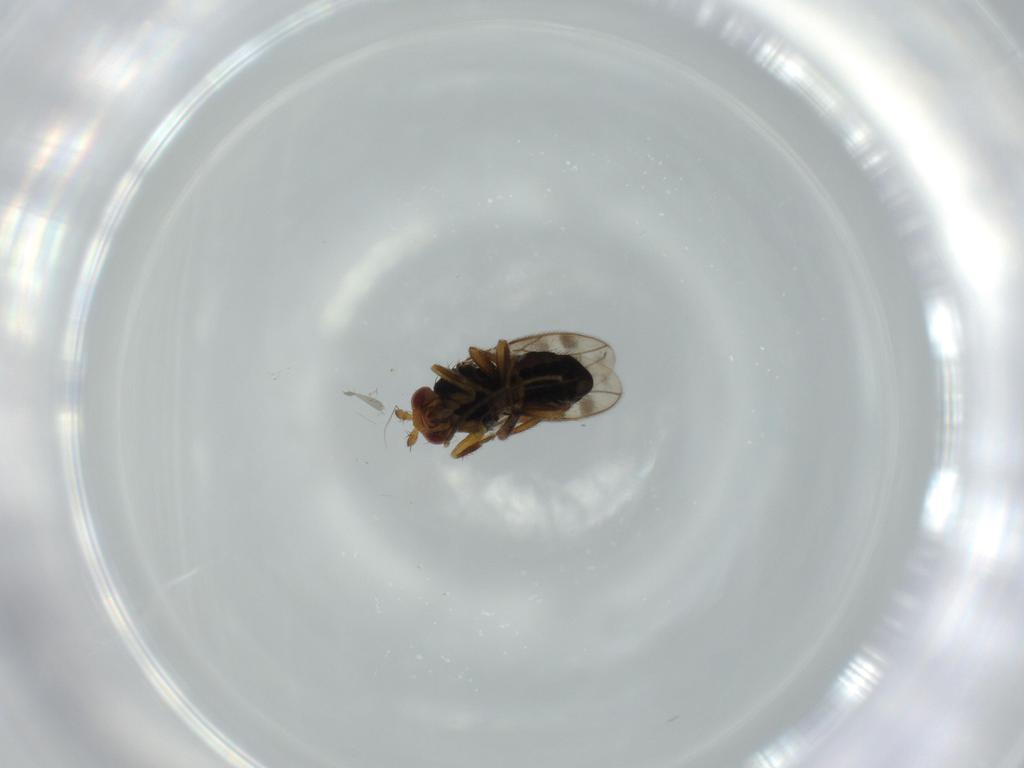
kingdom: Animalia
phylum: Arthropoda
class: Insecta
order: Diptera
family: Sphaeroceridae
